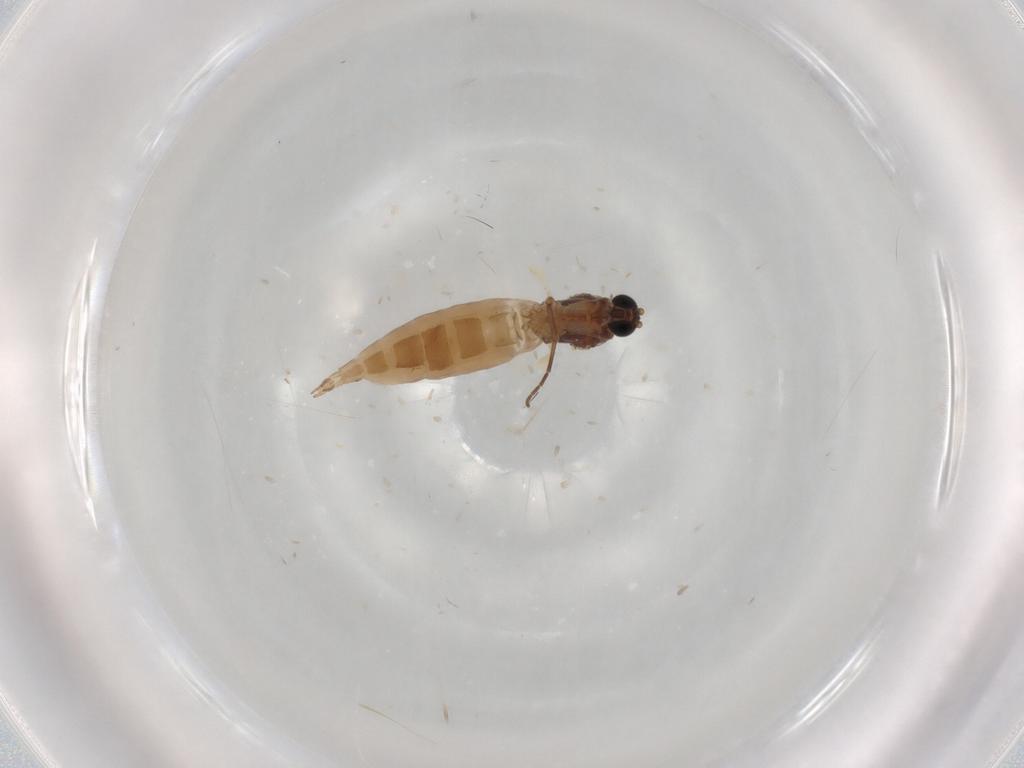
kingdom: Animalia
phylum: Arthropoda
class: Insecta
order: Diptera
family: Sciaridae
